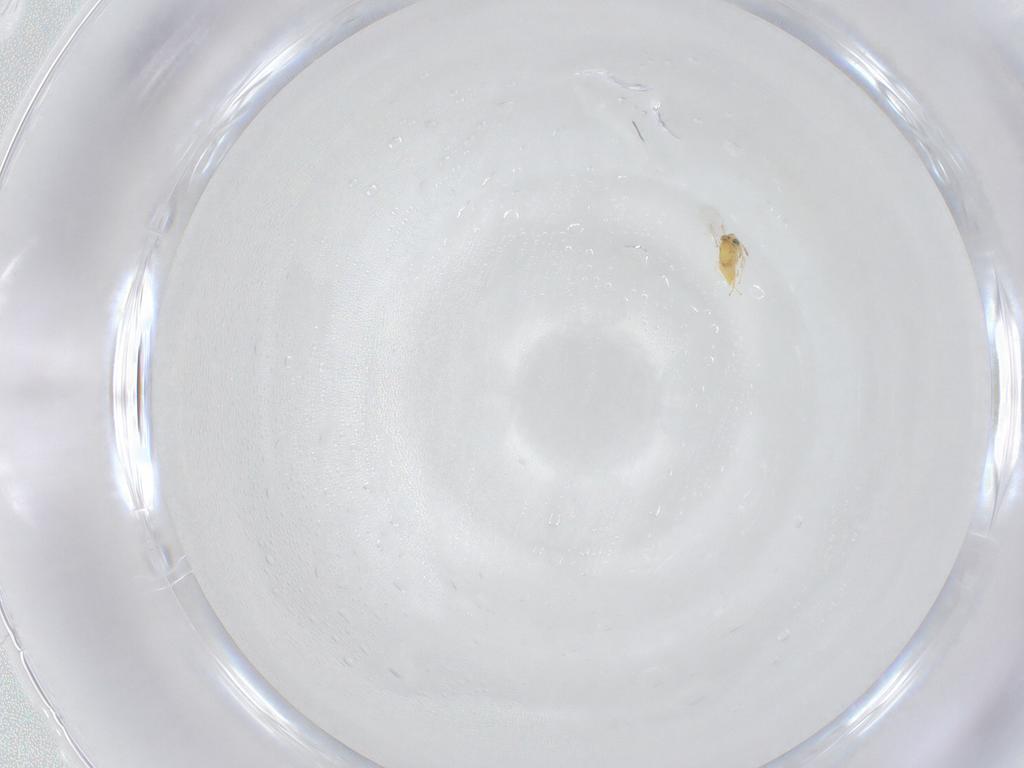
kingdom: Animalia
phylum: Arthropoda
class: Insecta
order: Hymenoptera
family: Aphelinidae
